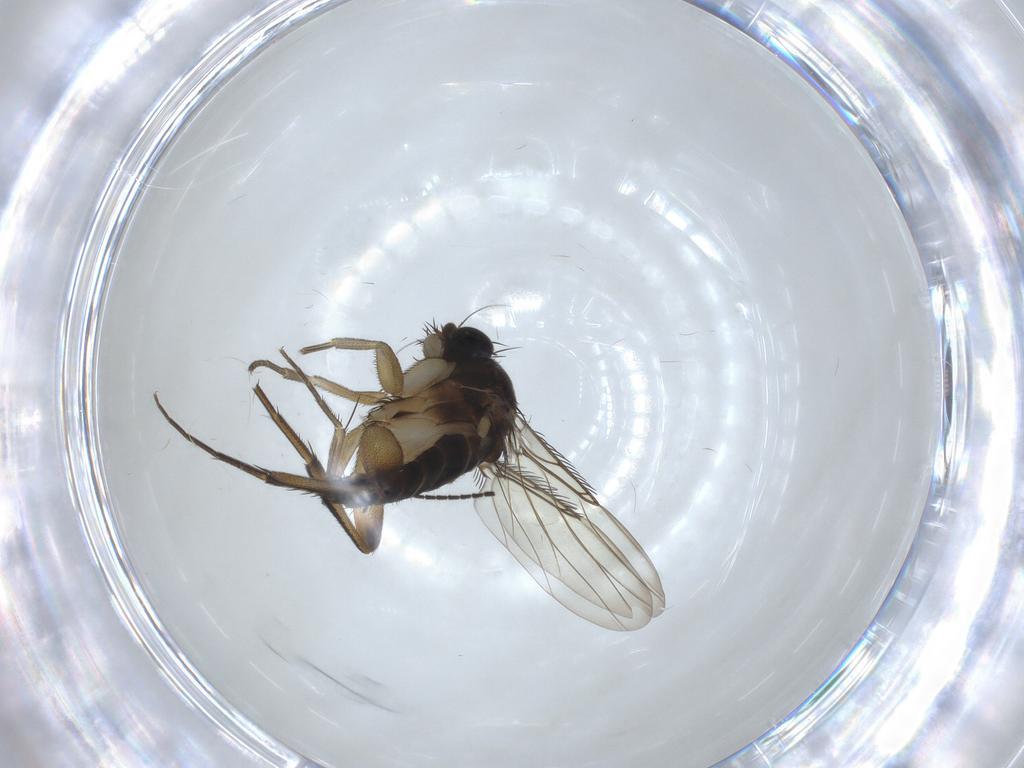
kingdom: Animalia
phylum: Arthropoda
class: Insecta
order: Diptera
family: Phoridae
